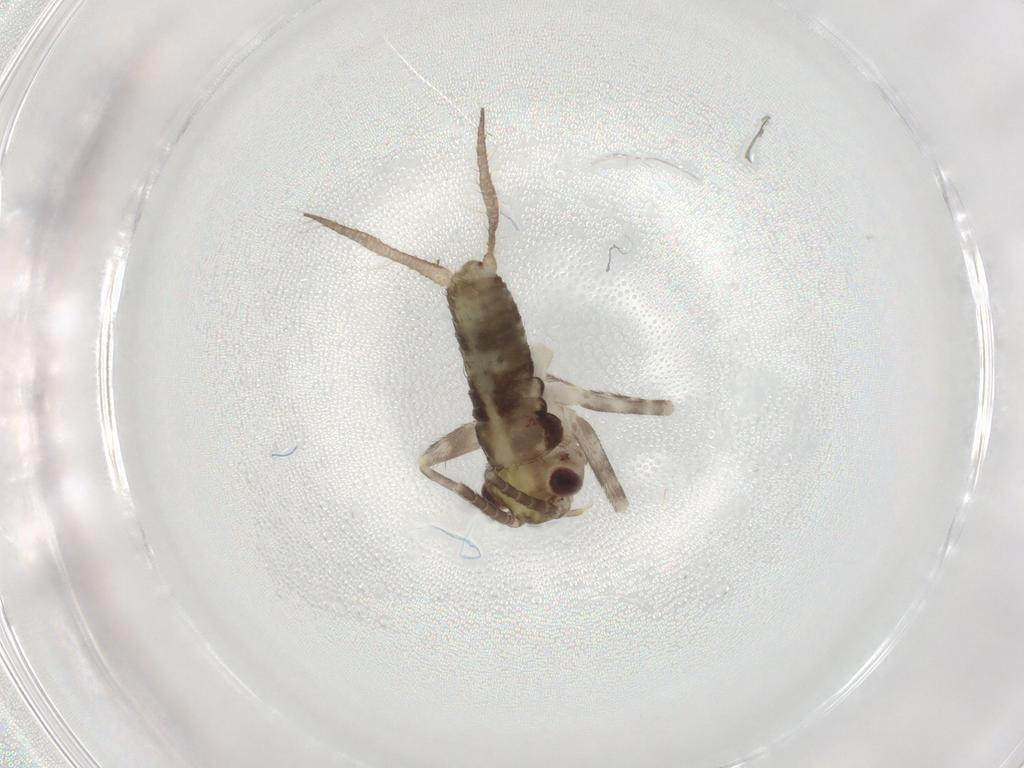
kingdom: Animalia
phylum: Arthropoda
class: Insecta
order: Orthoptera
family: Gryllidae
